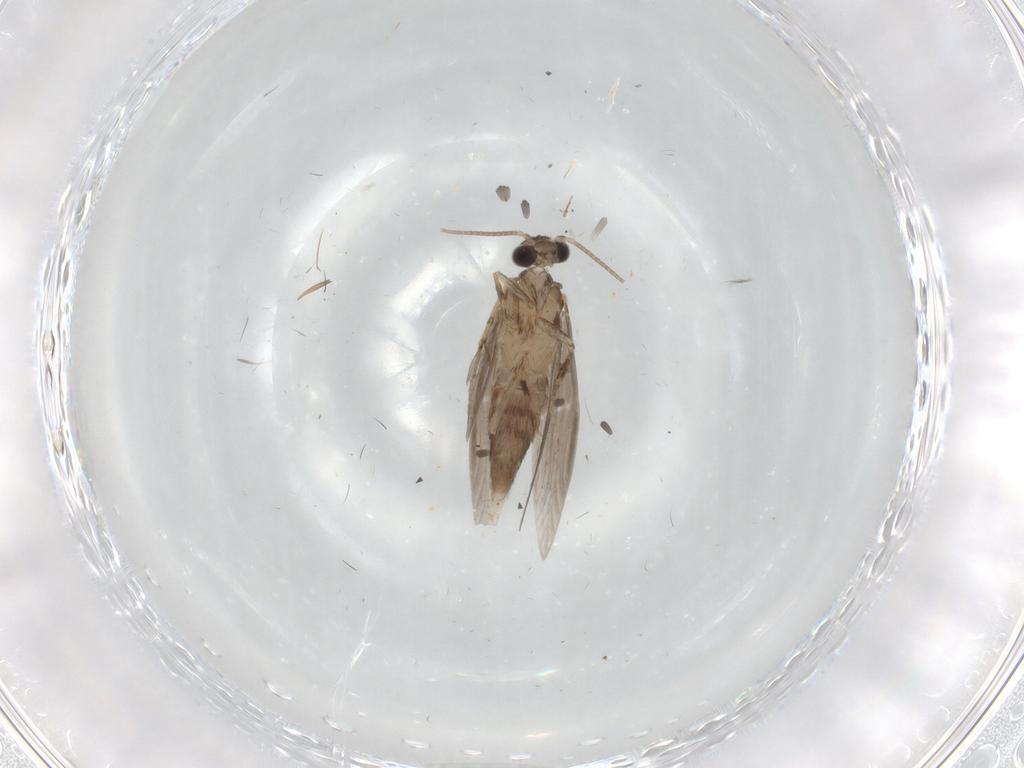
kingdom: Animalia
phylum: Arthropoda
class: Insecta
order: Trichoptera
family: Hydroptilidae
